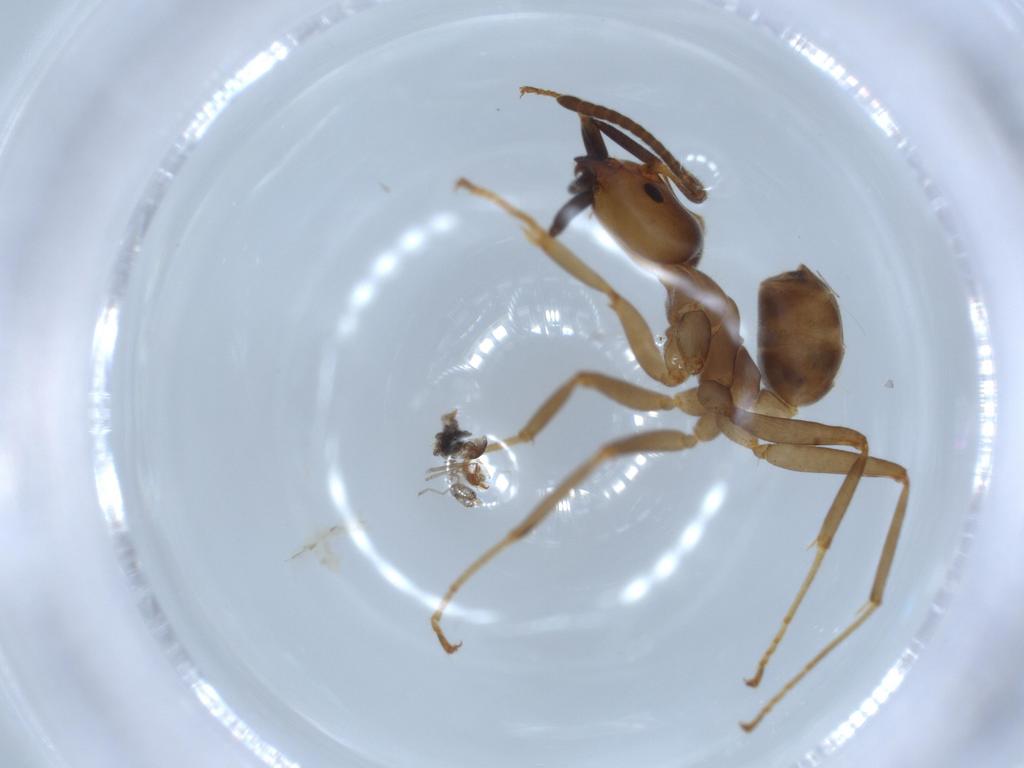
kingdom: Animalia
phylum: Arthropoda
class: Insecta
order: Hymenoptera
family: Formicidae
